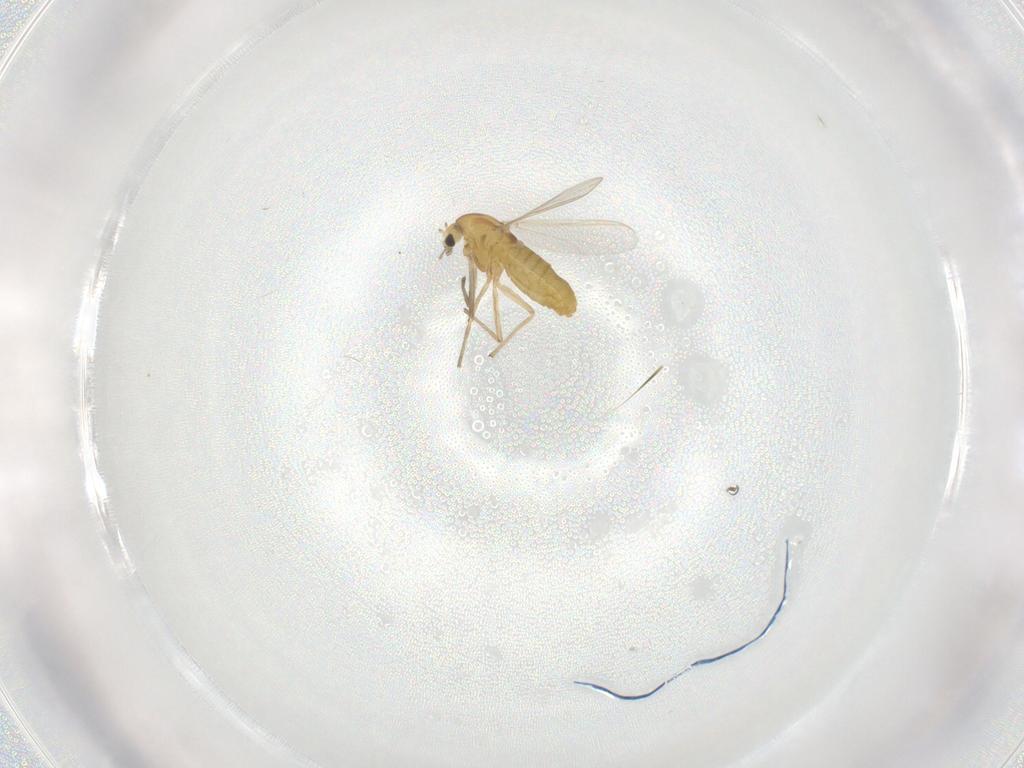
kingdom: Animalia
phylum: Arthropoda
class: Insecta
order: Diptera
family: Chironomidae
